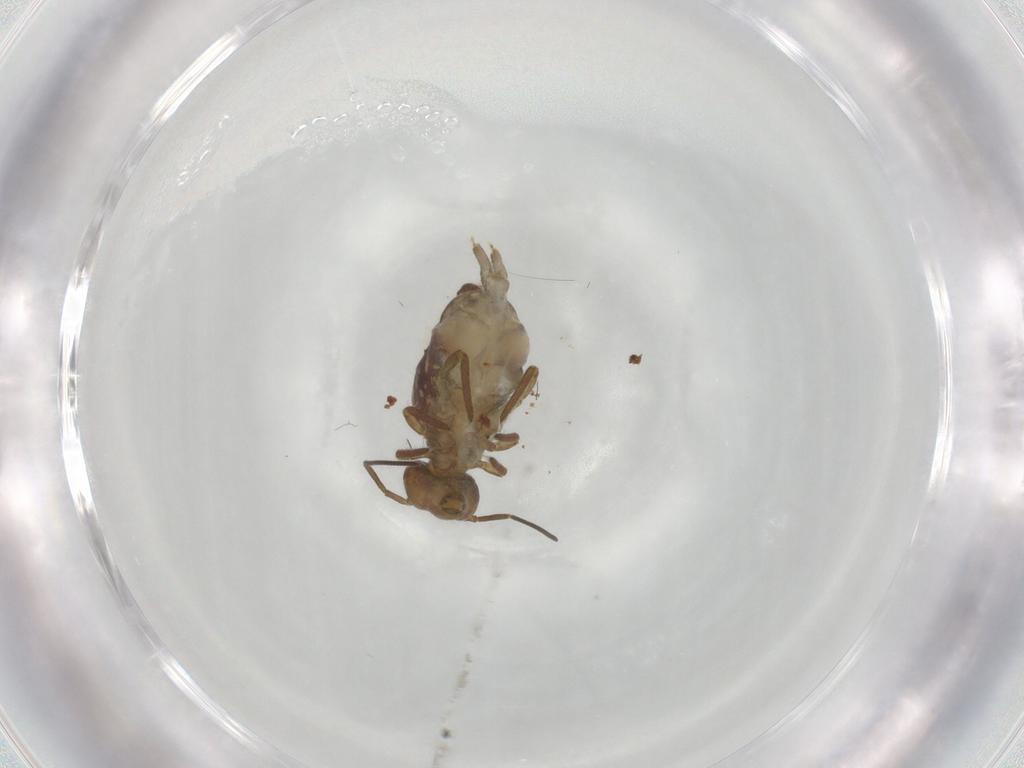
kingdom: Animalia
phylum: Arthropoda
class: Collembola
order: Symphypleona
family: Sminthuridae
